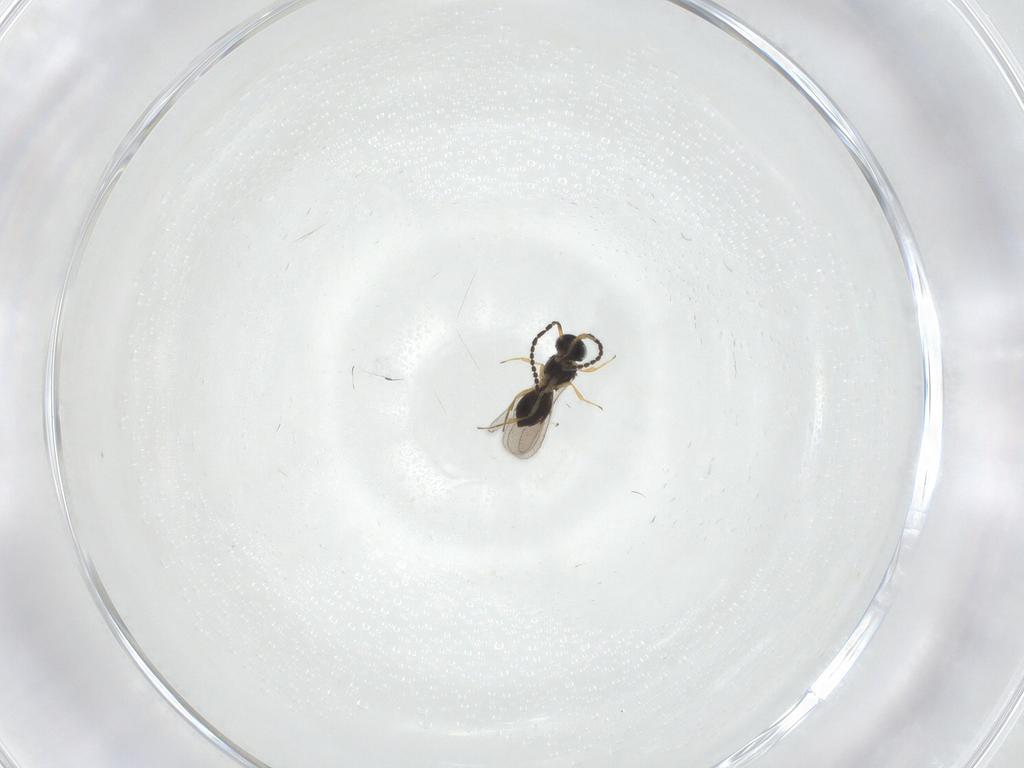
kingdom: Animalia
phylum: Arthropoda
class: Insecta
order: Hymenoptera
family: Scelionidae
